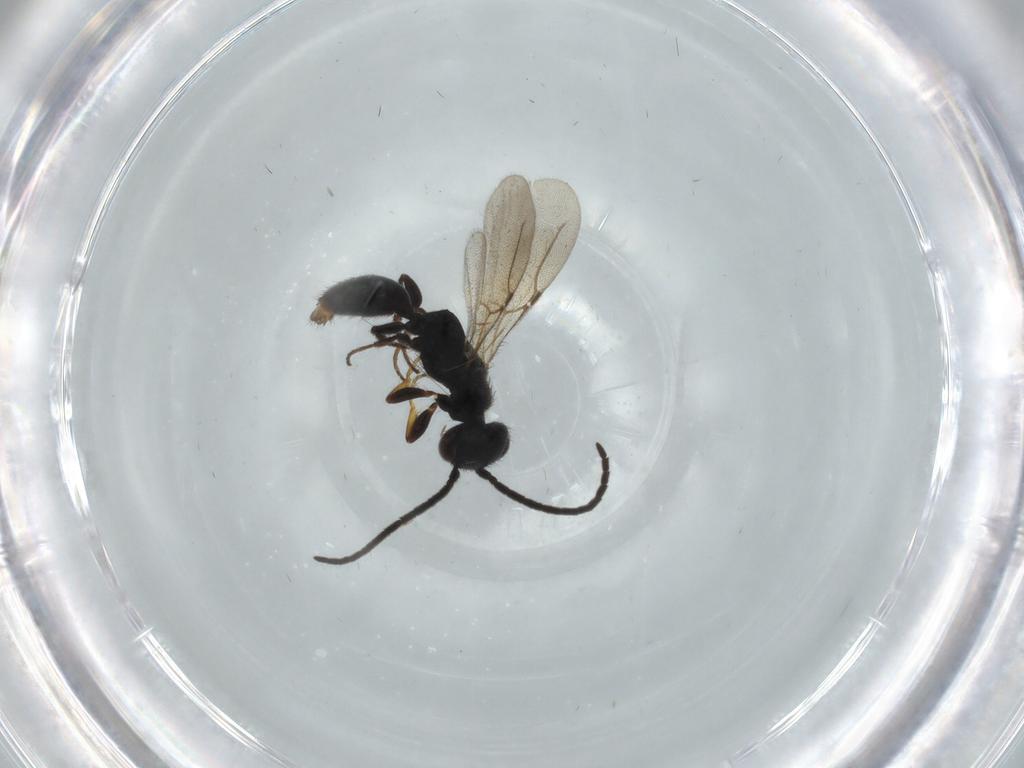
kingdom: Animalia
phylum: Arthropoda
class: Insecta
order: Hymenoptera
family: Bethylidae
